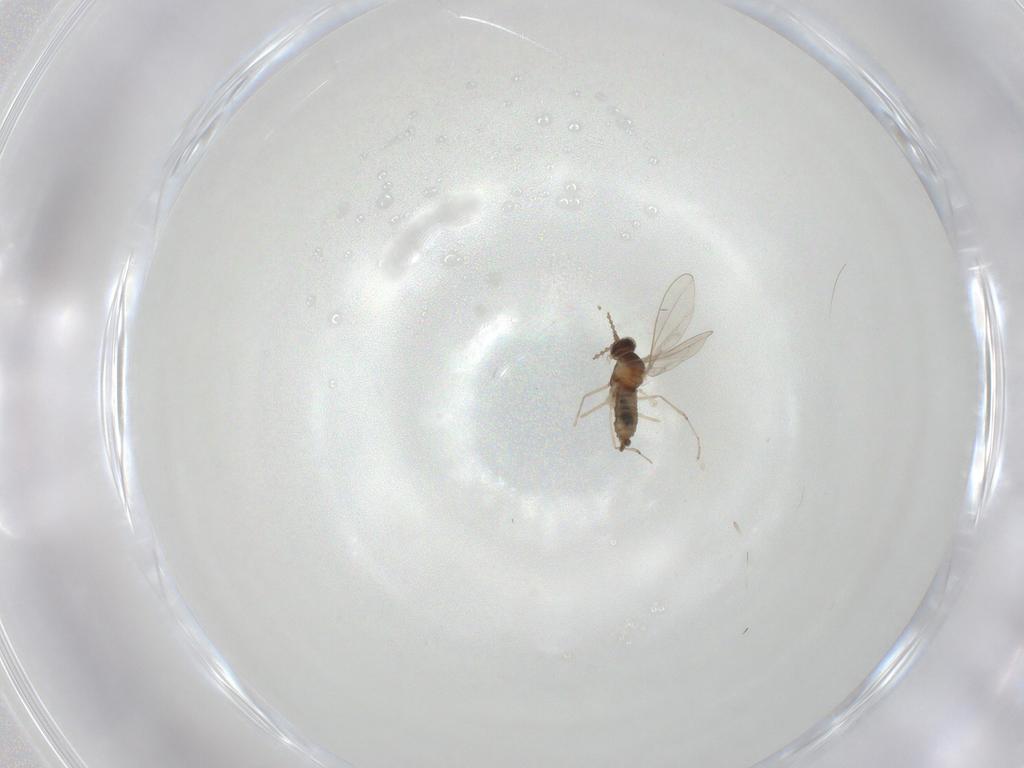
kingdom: Animalia
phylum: Arthropoda
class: Insecta
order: Diptera
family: Cecidomyiidae
